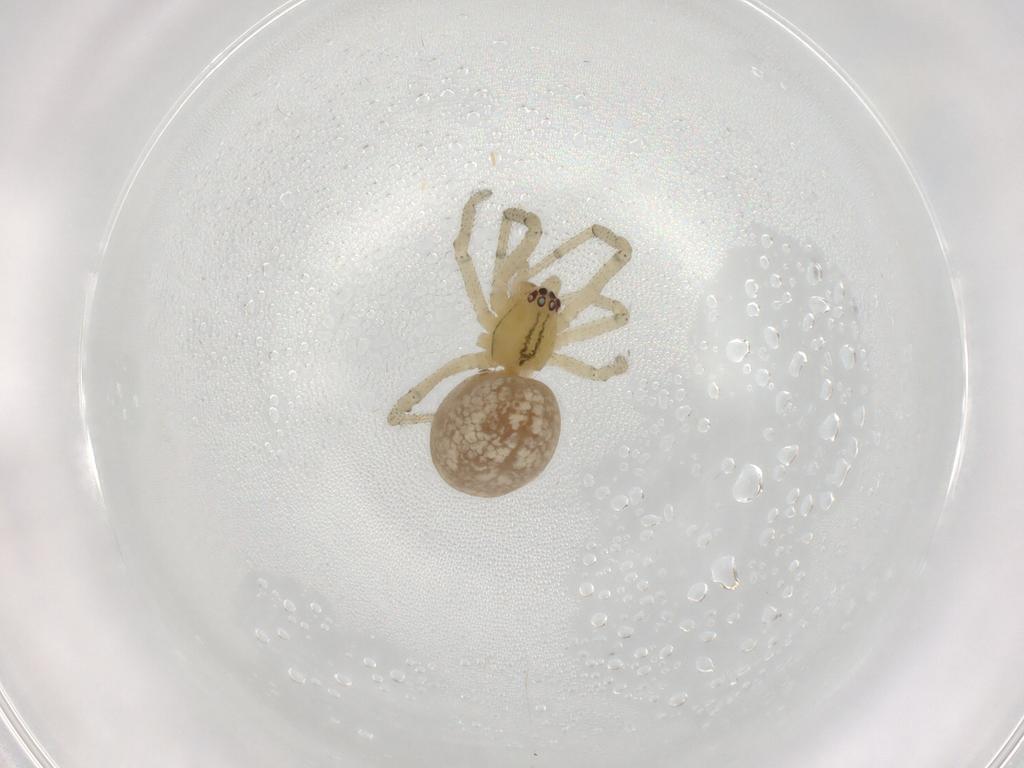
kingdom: Animalia
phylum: Arthropoda
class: Arachnida
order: Araneae
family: Theridiidae
